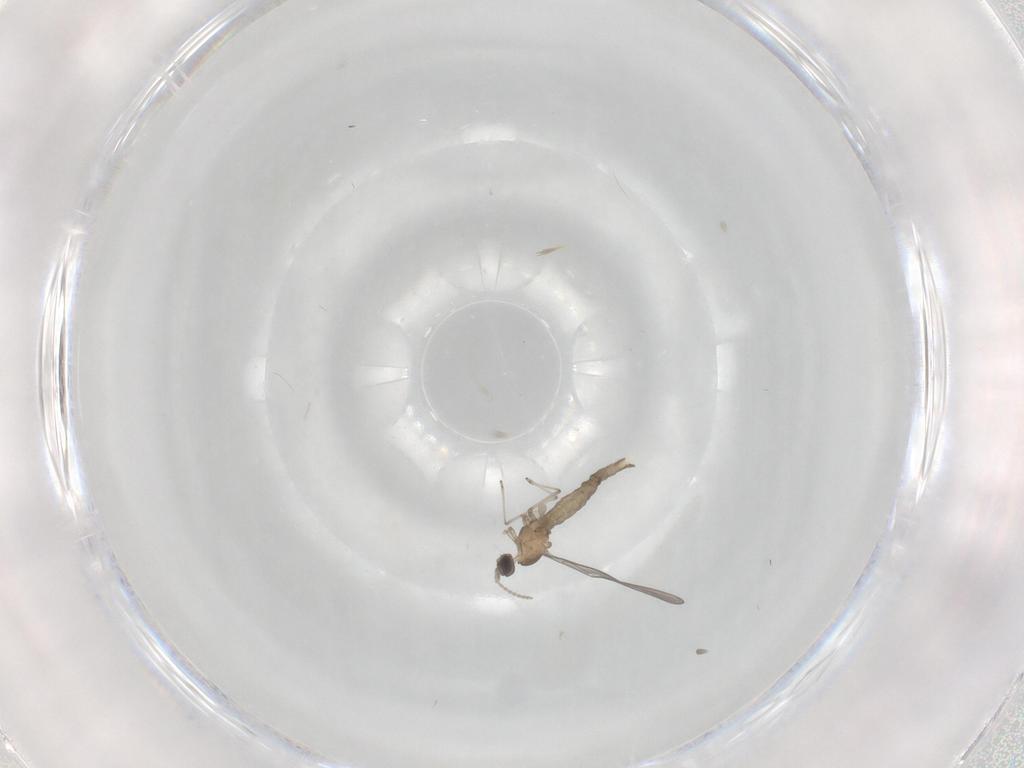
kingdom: Animalia
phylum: Arthropoda
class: Insecta
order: Diptera
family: Cecidomyiidae
